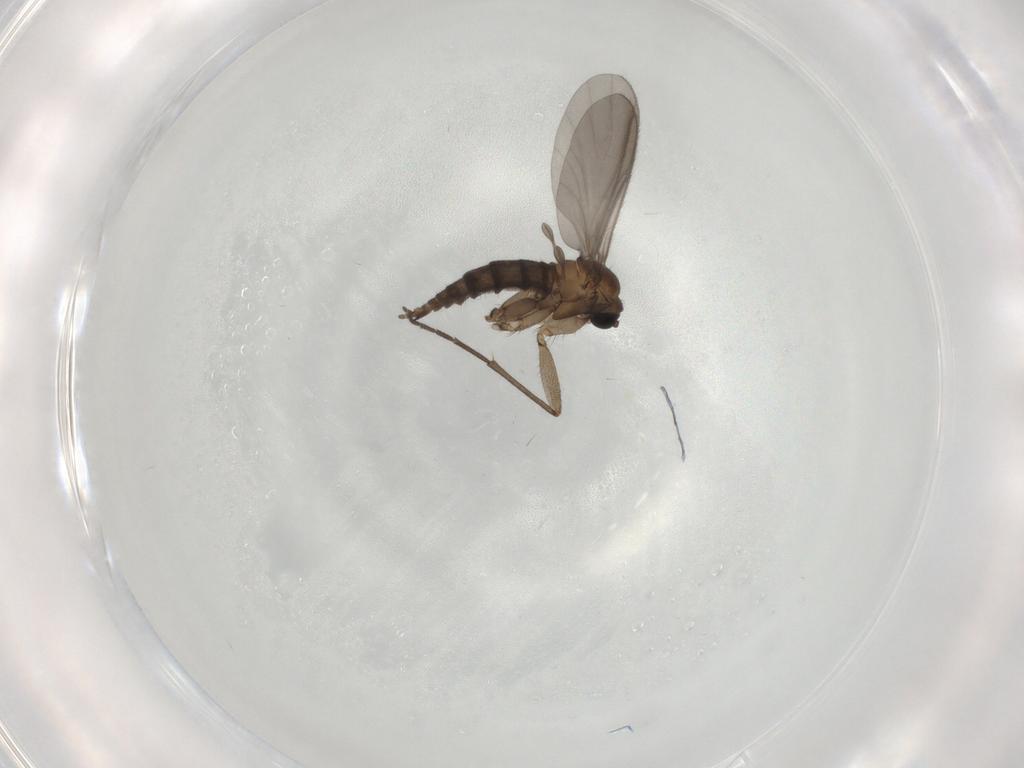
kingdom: Animalia
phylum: Arthropoda
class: Insecta
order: Diptera
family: Sciaridae
